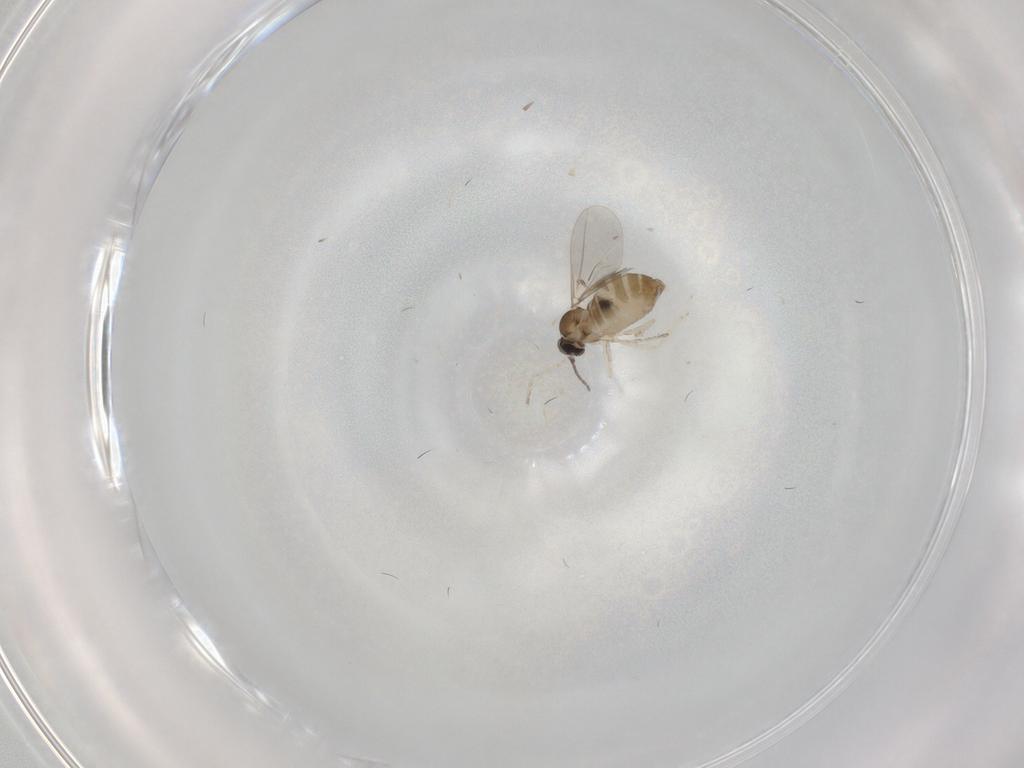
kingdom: Animalia
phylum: Arthropoda
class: Insecta
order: Diptera
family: Cecidomyiidae
